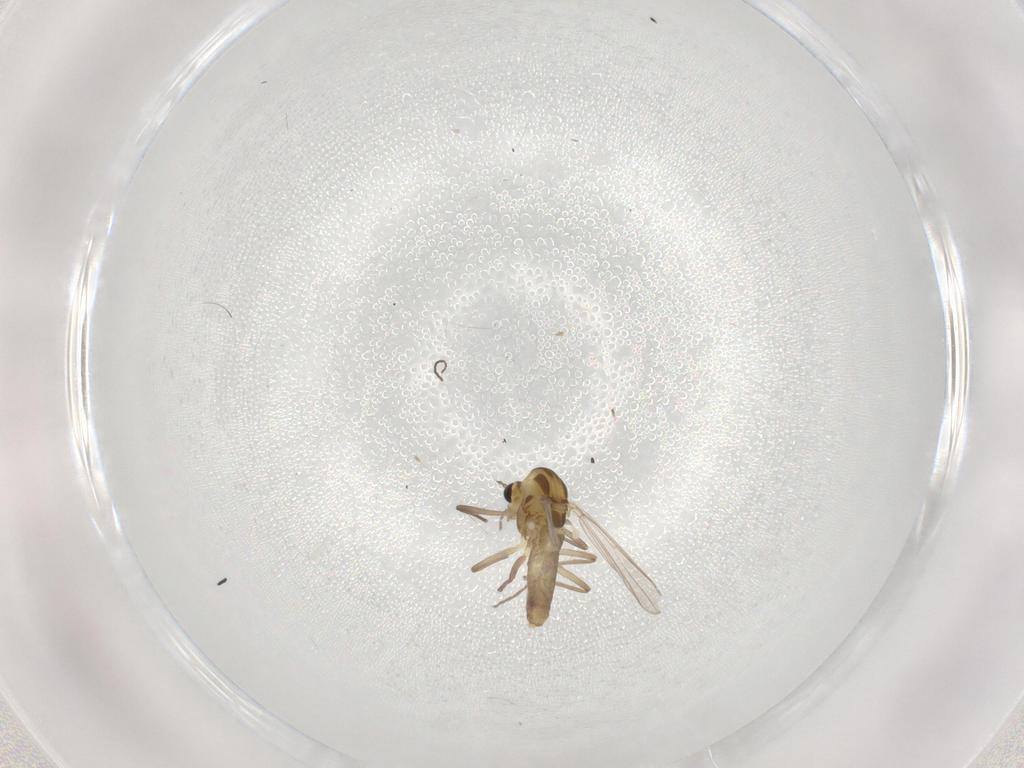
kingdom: Animalia
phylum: Arthropoda
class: Insecta
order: Diptera
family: Chironomidae
